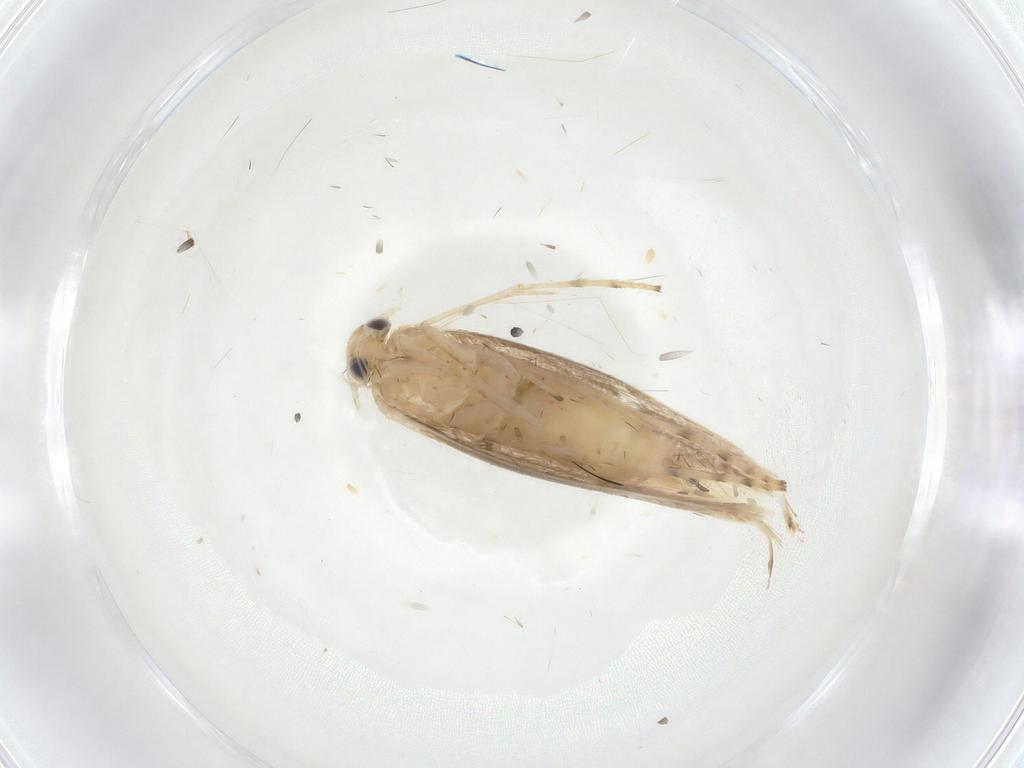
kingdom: Animalia
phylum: Arthropoda
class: Insecta
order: Lepidoptera
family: Gracillariidae
